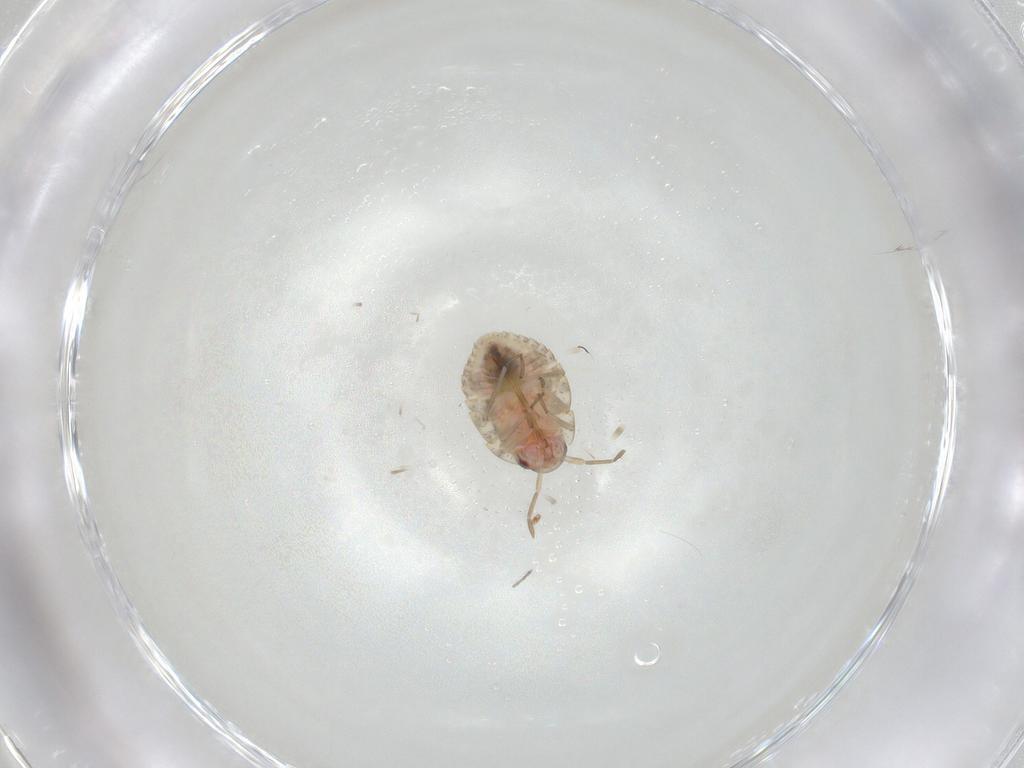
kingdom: Animalia
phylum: Arthropoda
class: Insecta
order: Hemiptera
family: Miridae
